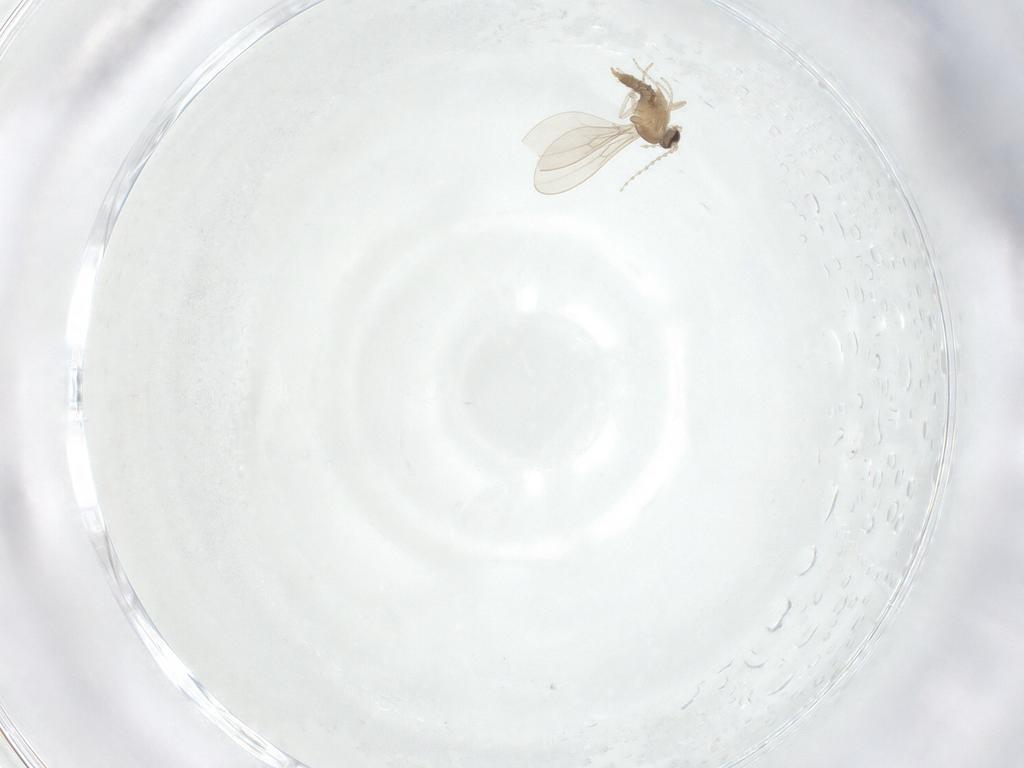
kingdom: Animalia
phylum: Arthropoda
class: Insecta
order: Diptera
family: Cecidomyiidae
